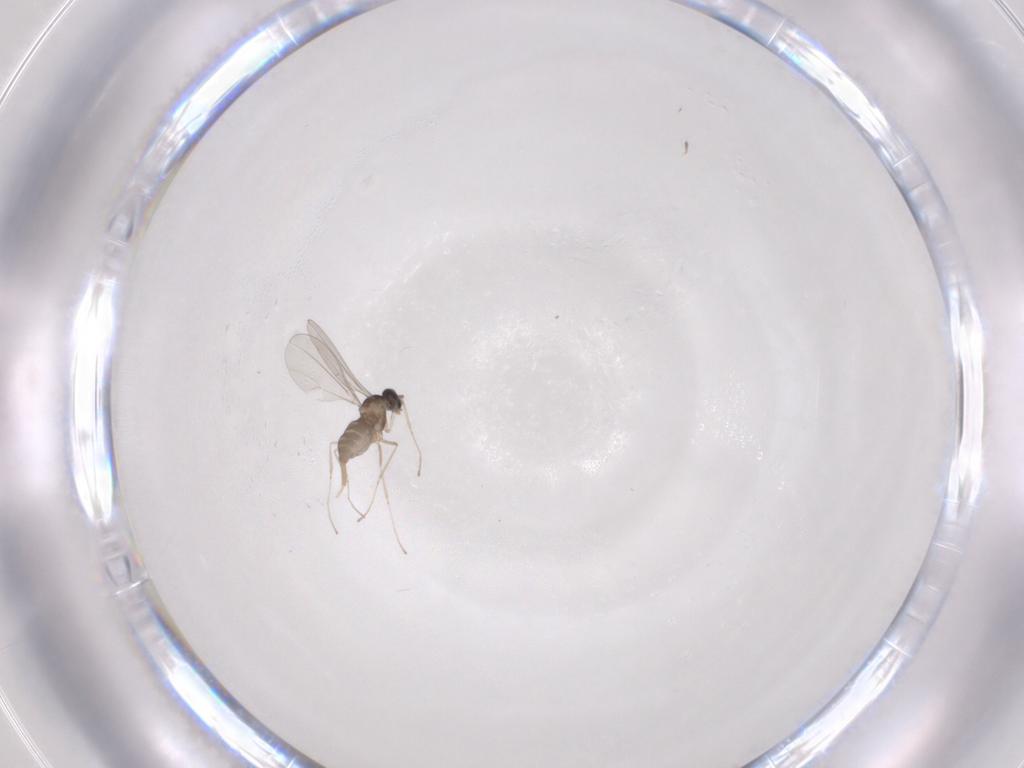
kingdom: Animalia
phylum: Arthropoda
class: Insecta
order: Diptera
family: Cecidomyiidae
